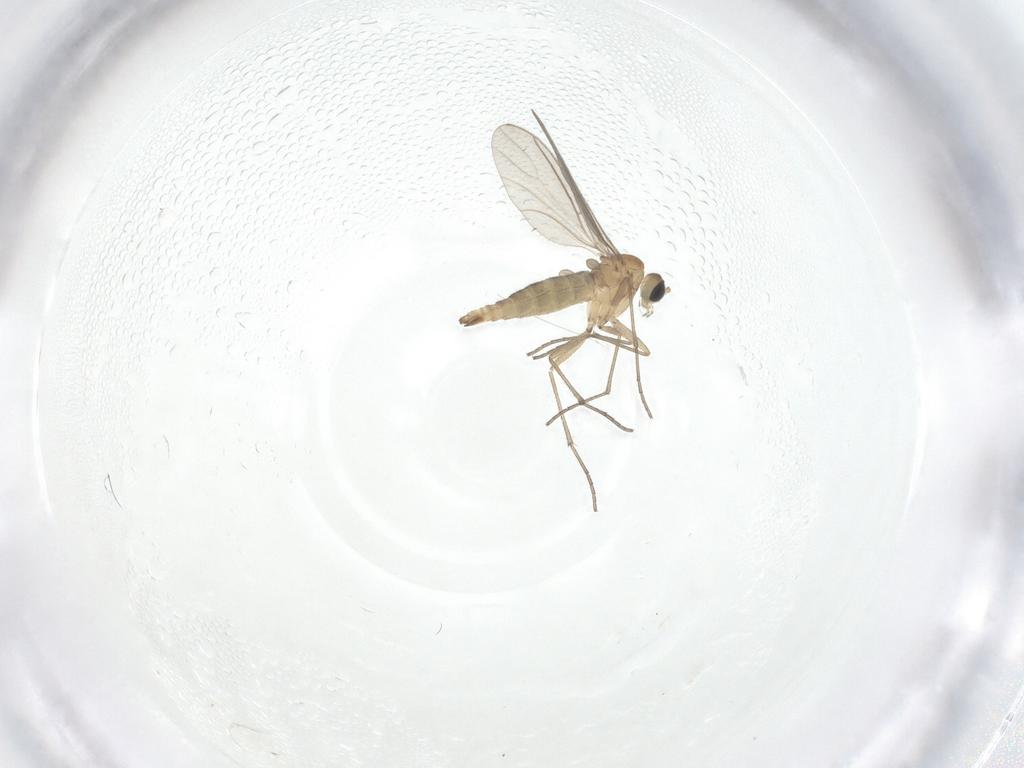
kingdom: Animalia
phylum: Arthropoda
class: Insecta
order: Diptera
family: Sciaridae
